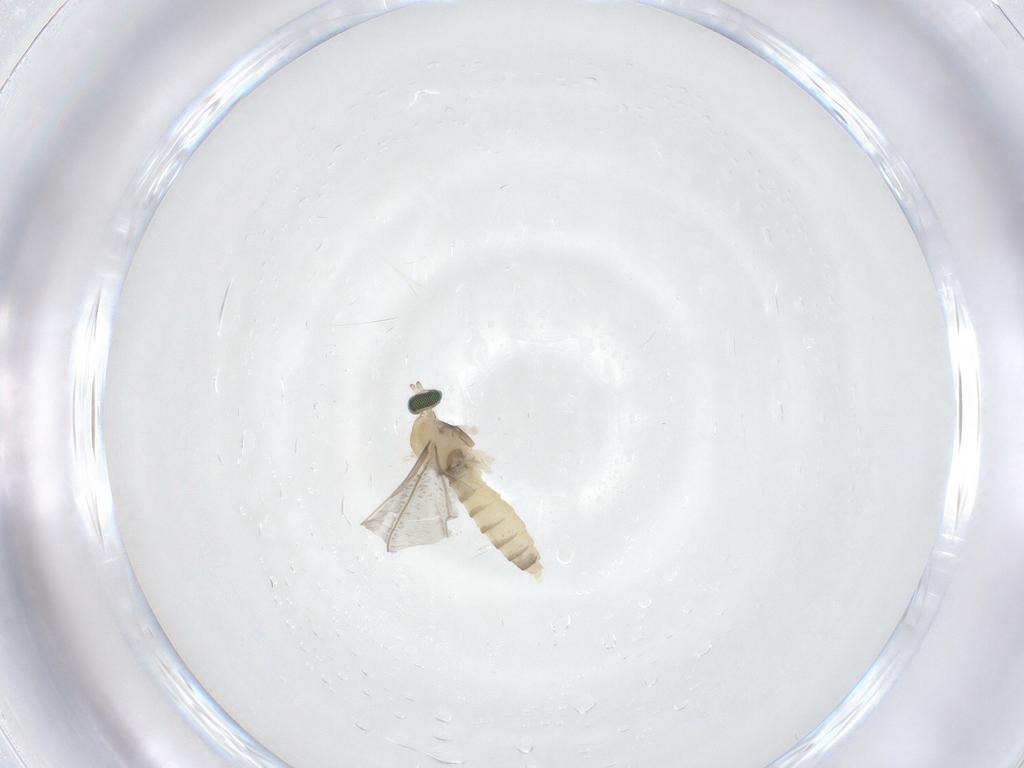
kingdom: Animalia
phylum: Arthropoda
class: Insecta
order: Diptera
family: Cecidomyiidae
